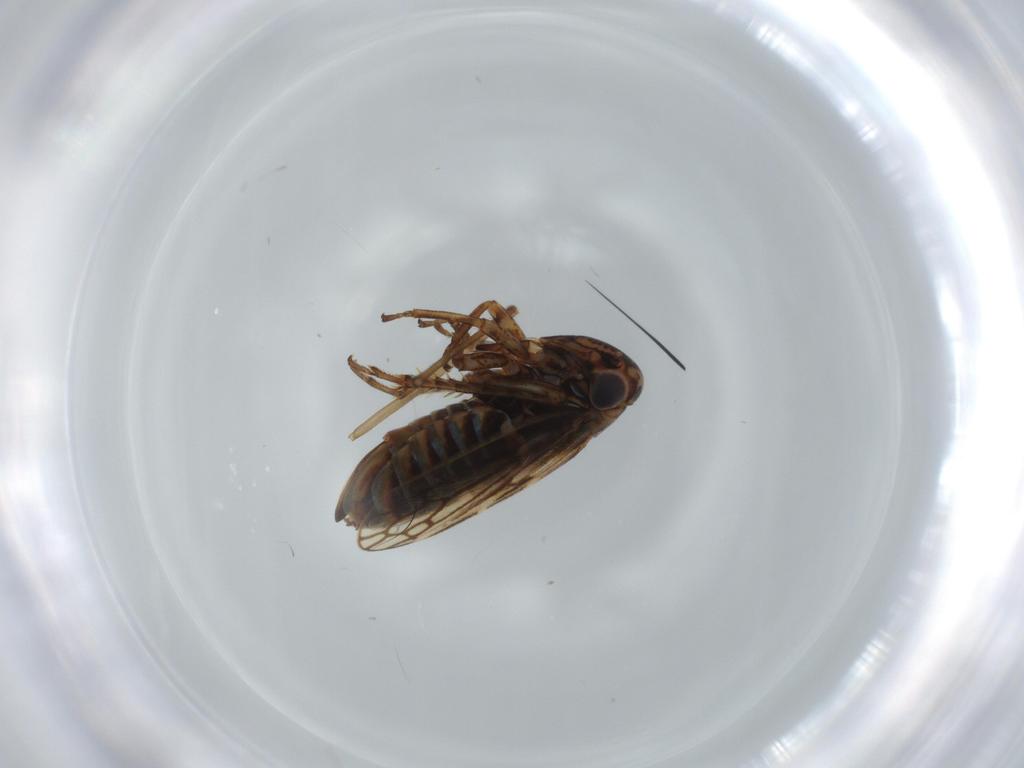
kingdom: Animalia
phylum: Arthropoda
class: Insecta
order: Hemiptera
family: Cicadellidae
